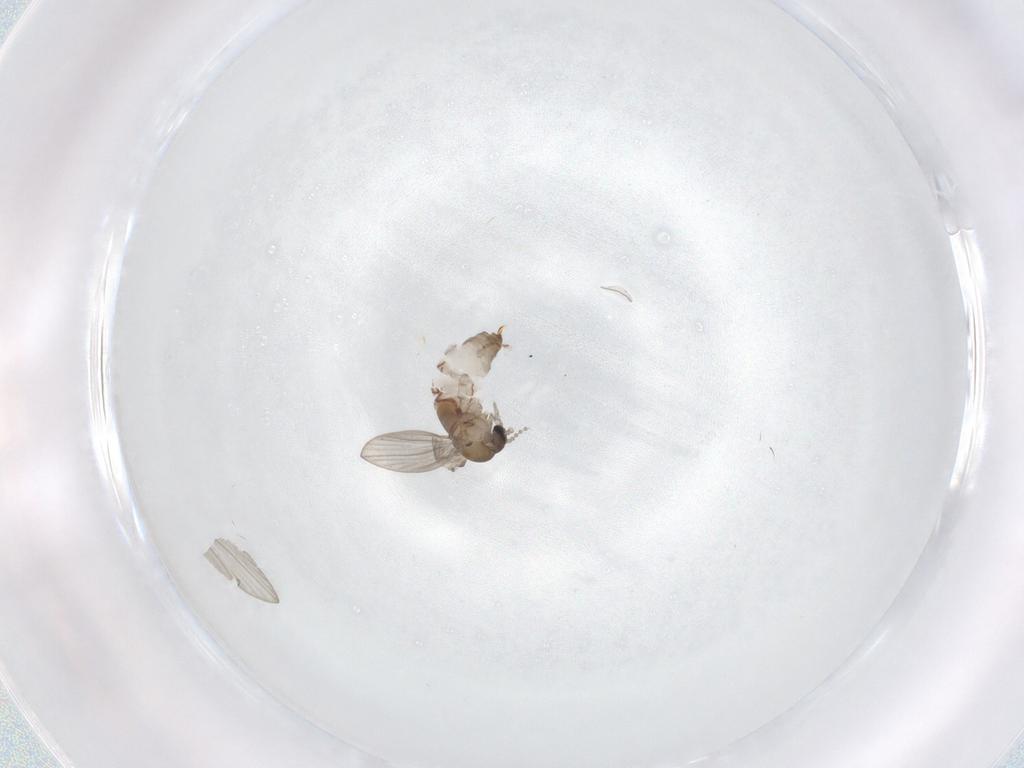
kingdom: Animalia
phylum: Arthropoda
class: Insecta
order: Diptera
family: Psychodidae
